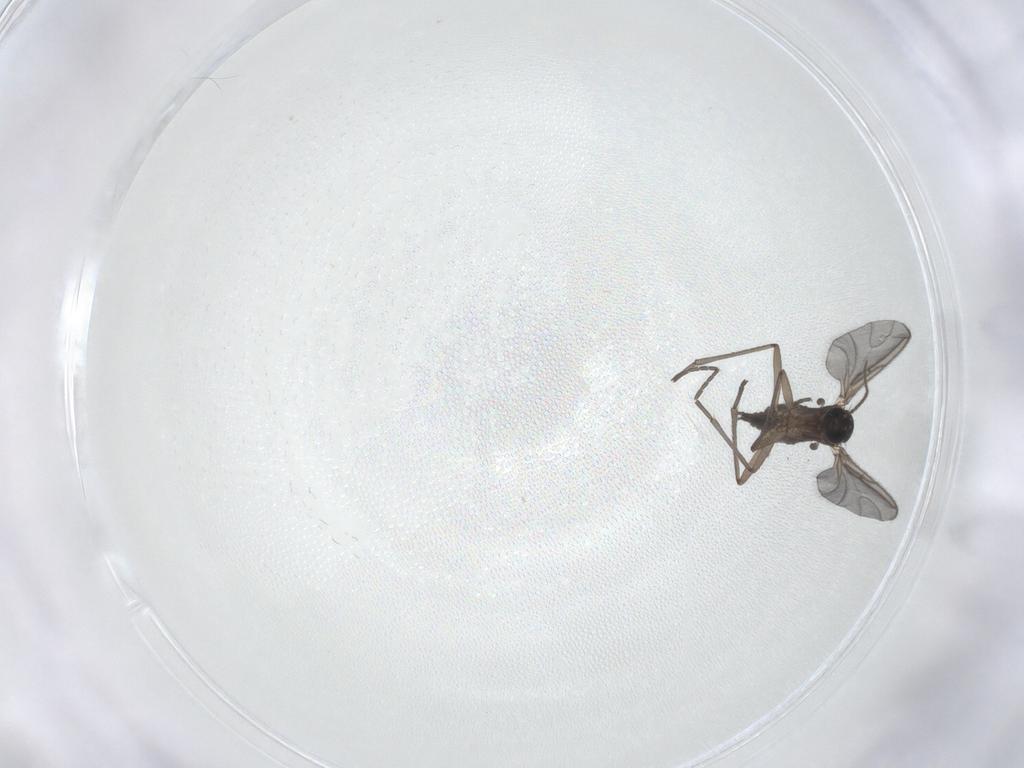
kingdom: Animalia
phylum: Arthropoda
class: Insecta
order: Diptera
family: Sciaridae
